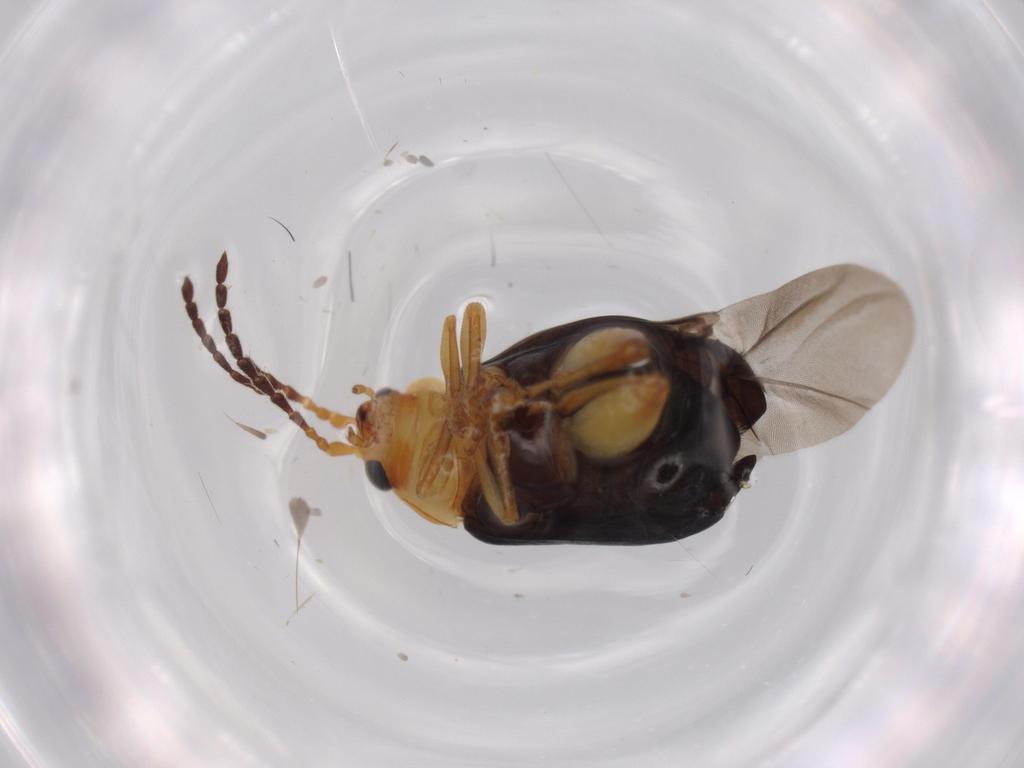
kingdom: Animalia
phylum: Arthropoda
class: Insecta
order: Coleoptera
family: Chrysomelidae
